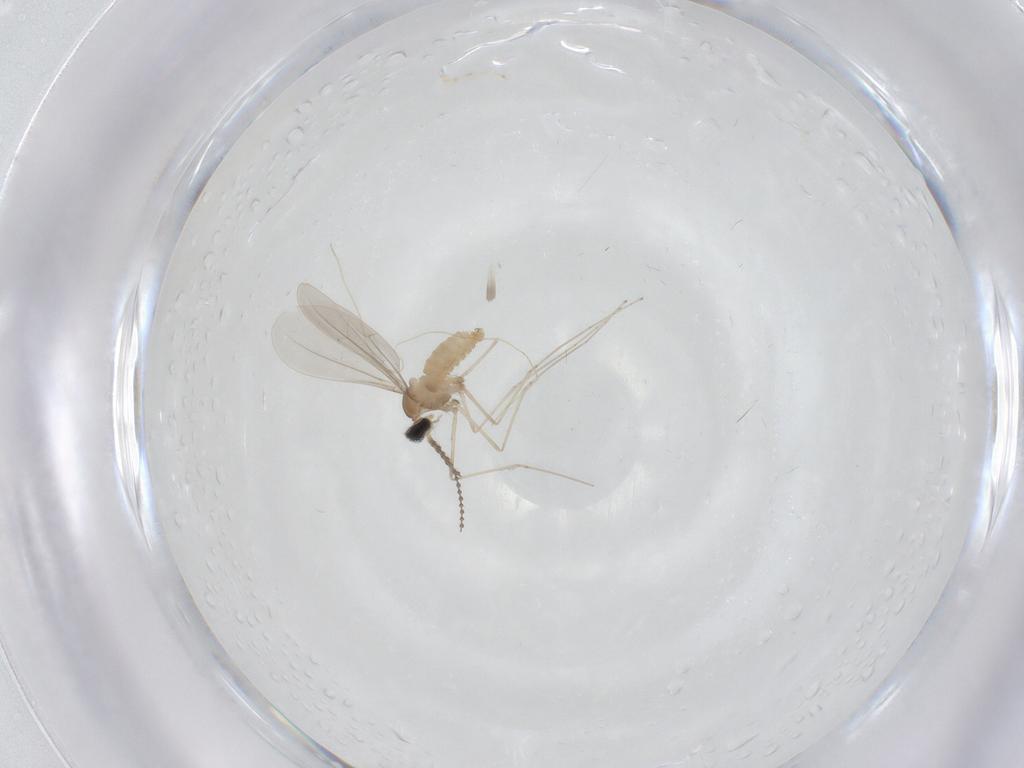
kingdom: Animalia
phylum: Arthropoda
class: Insecta
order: Diptera
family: Cecidomyiidae
